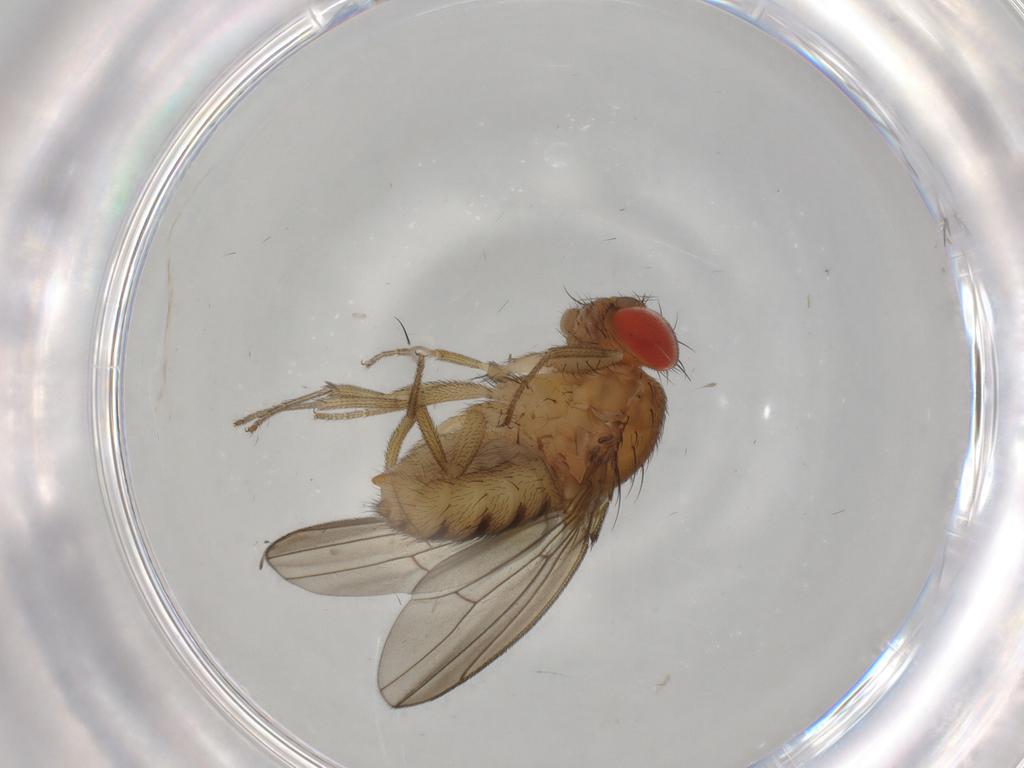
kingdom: Animalia
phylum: Arthropoda
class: Insecta
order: Diptera
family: Drosophilidae
